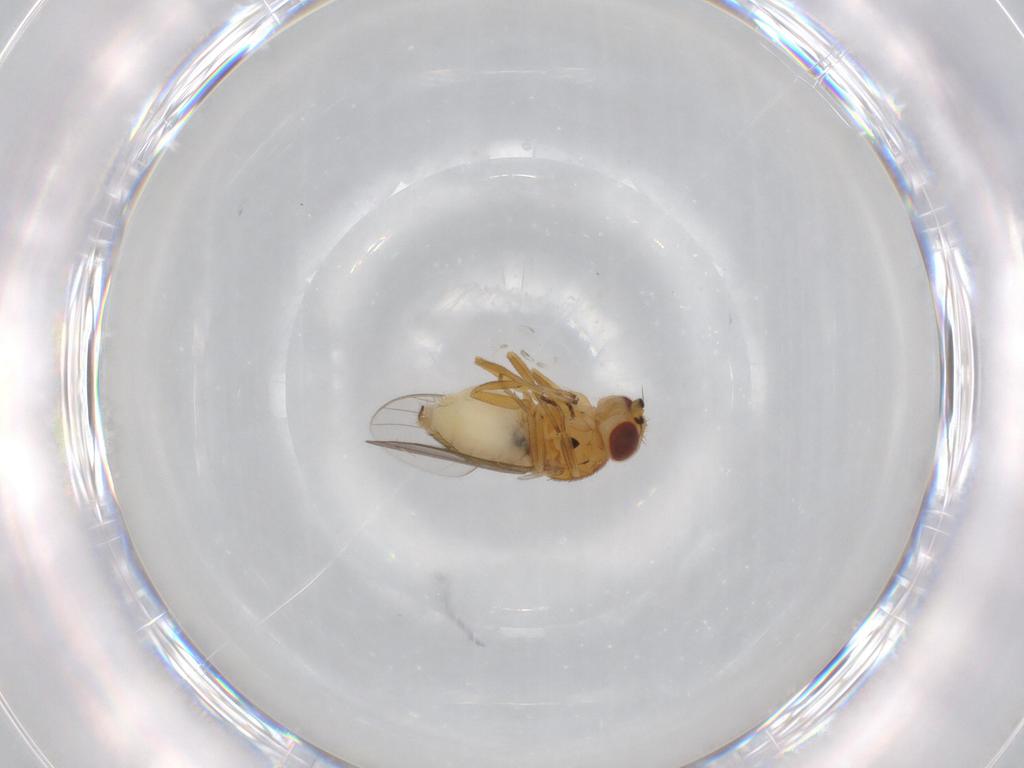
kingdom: Animalia
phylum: Arthropoda
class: Insecta
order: Diptera
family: Chloropidae
